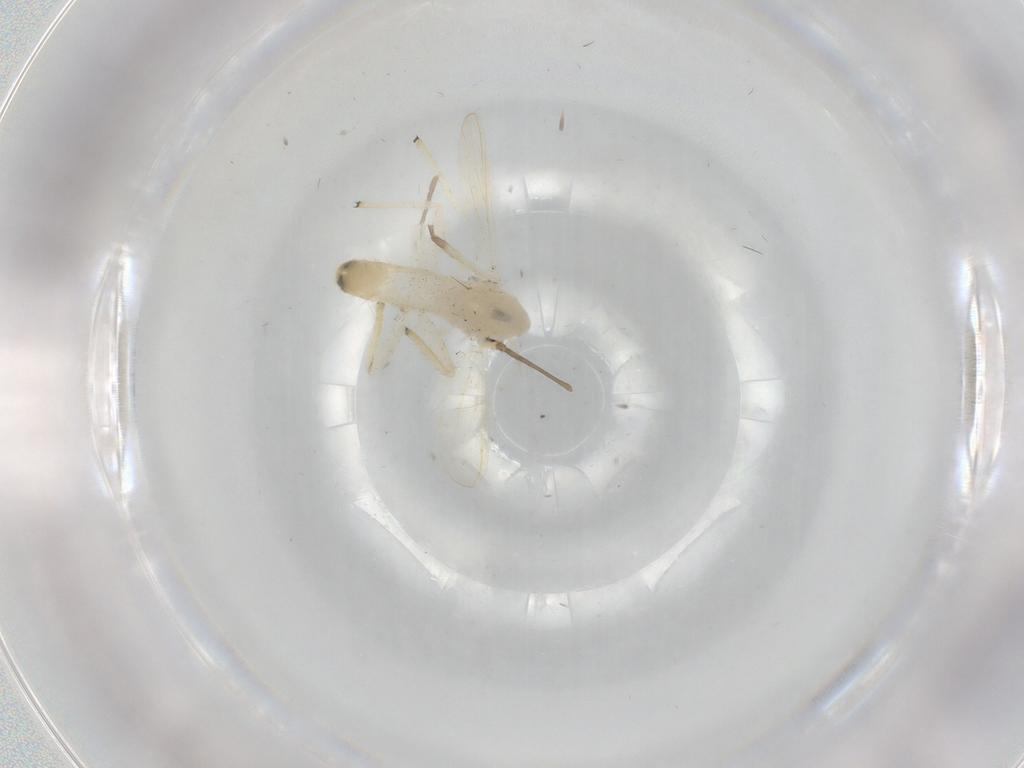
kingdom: Animalia
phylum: Arthropoda
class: Insecta
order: Diptera
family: Chironomidae
